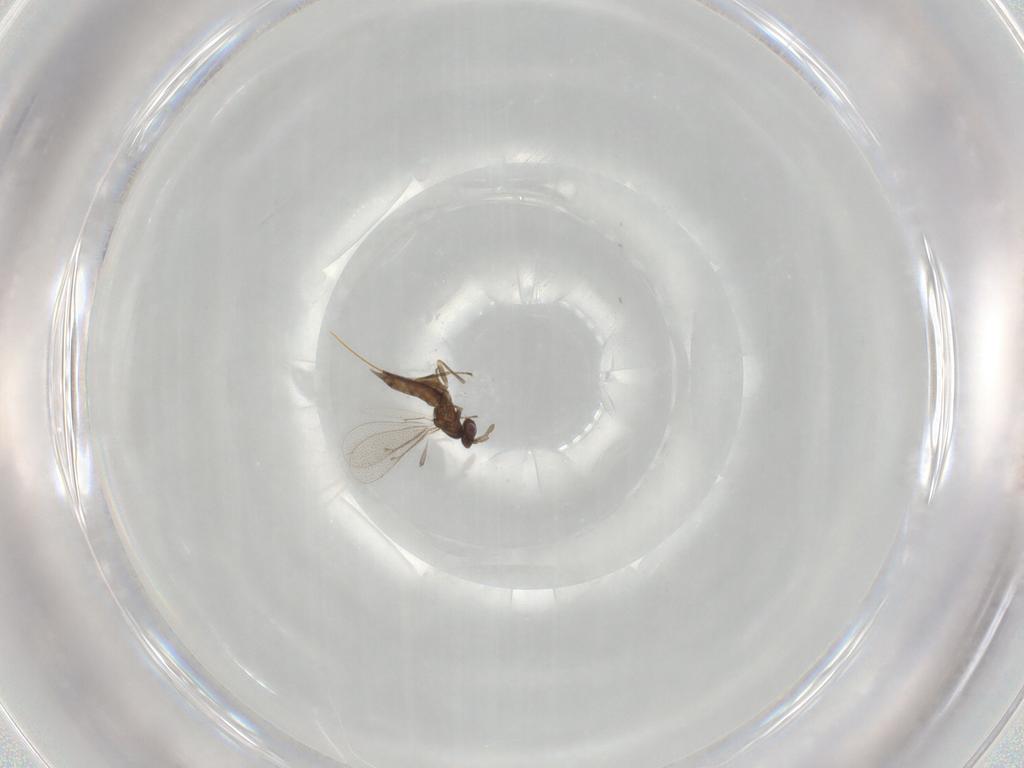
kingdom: Animalia
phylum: Arthropoda
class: Insecta
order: Hymenoptera
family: Eulophidae
